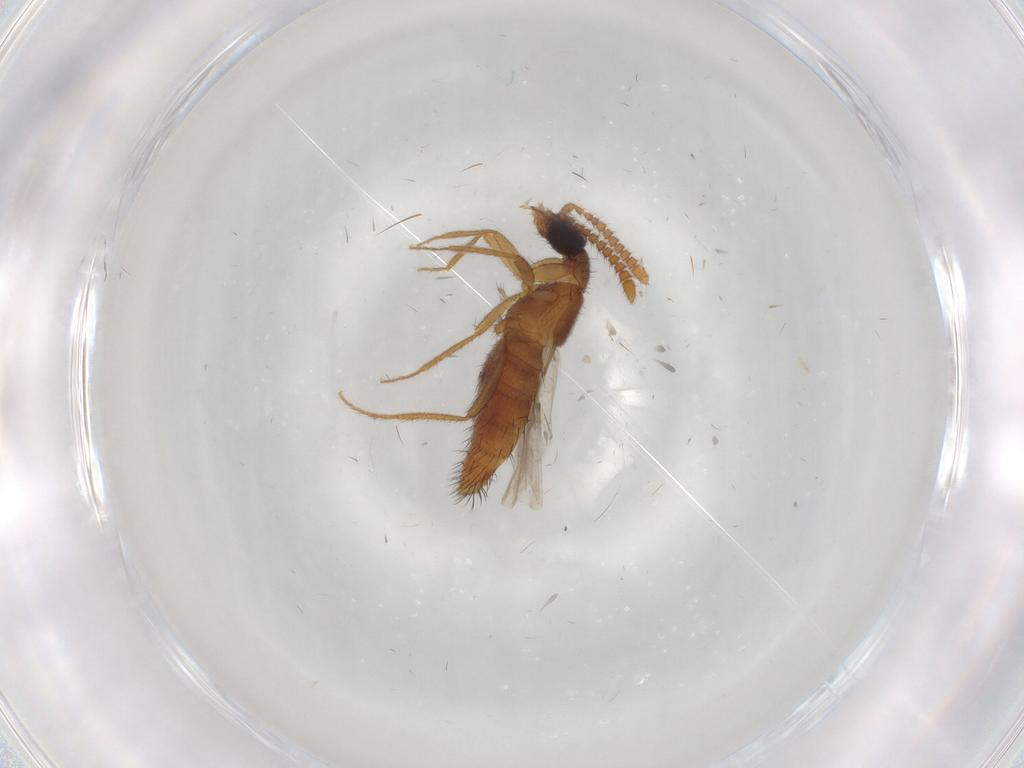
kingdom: Animalia
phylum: Arthropoda
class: Insecta
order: Coleoptera
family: Staphylinidae
